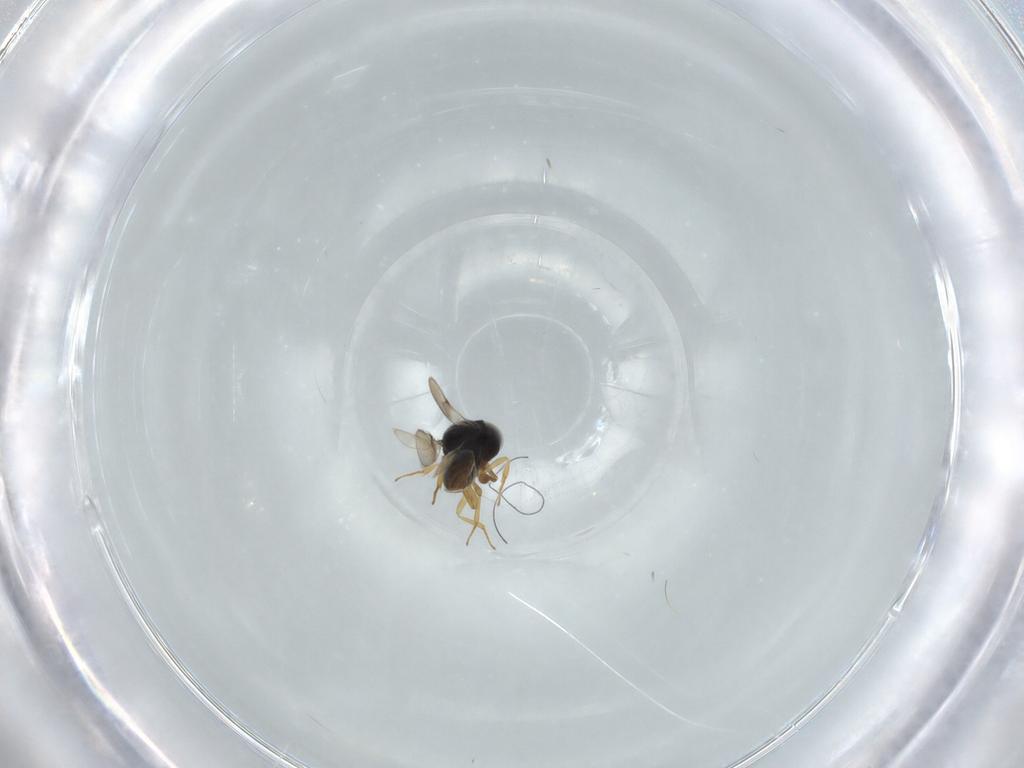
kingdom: Animalia
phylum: Arthropoda
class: Insecta
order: Hymenoptera
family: Scelionidae
